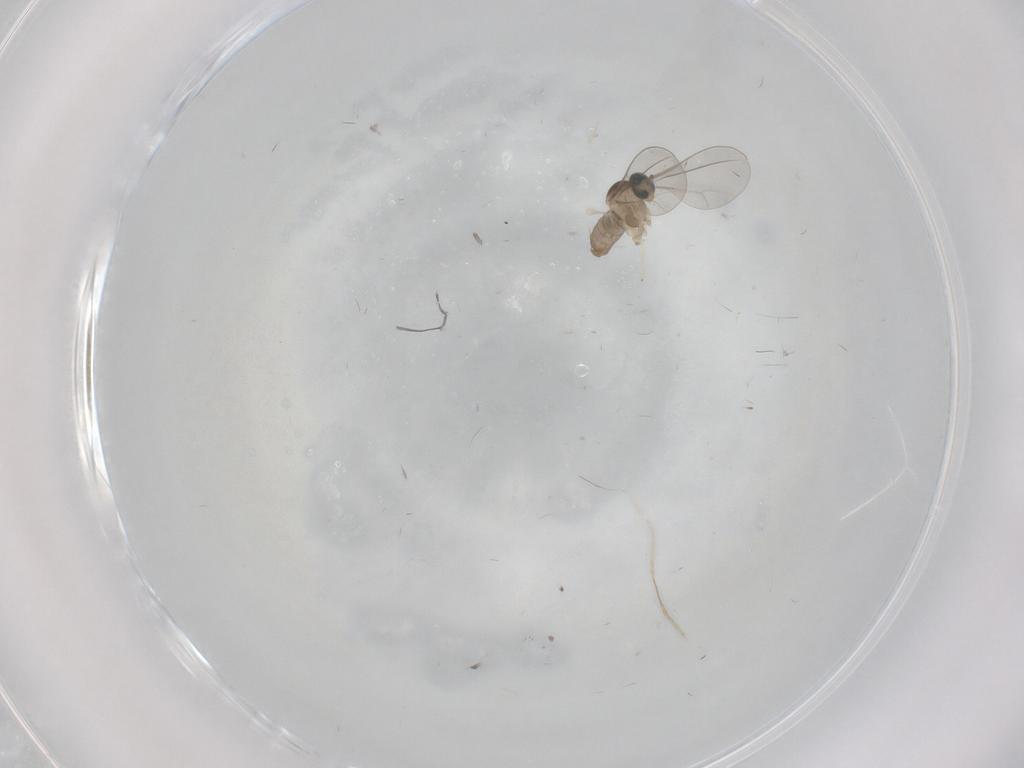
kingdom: Animalia
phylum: Arthropoda
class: Insecta
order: Diptera
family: Cecidomyiidae
